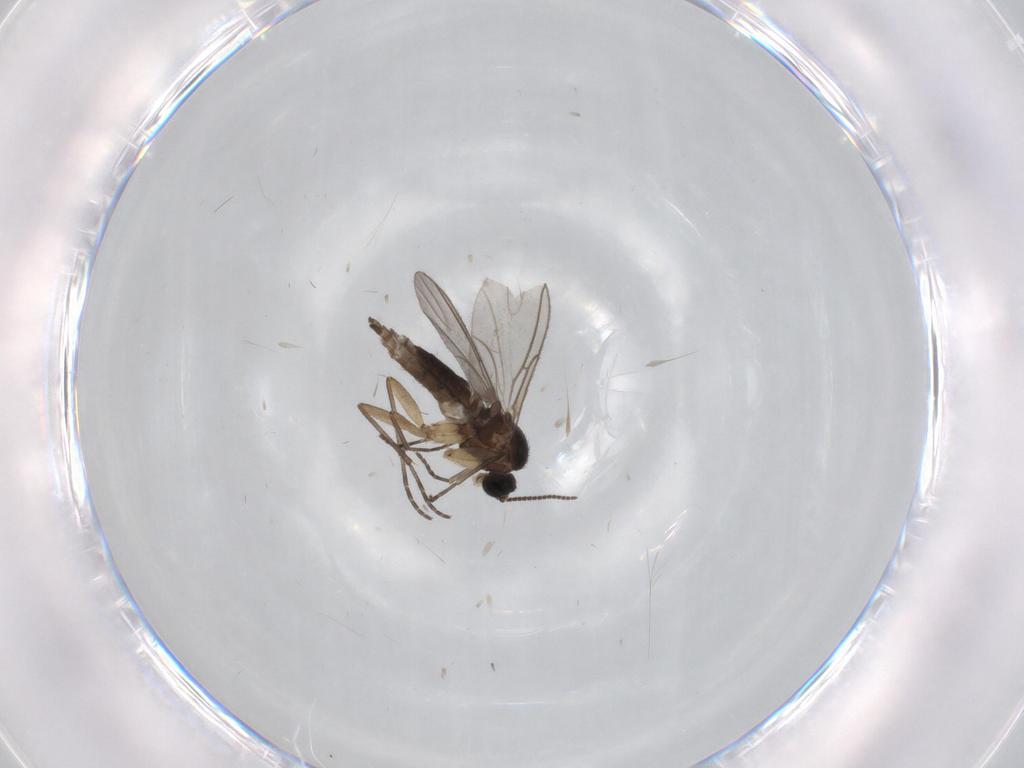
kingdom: Animalia
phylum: Arthropoda
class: Insecta
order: Diptera
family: Sciaridae
